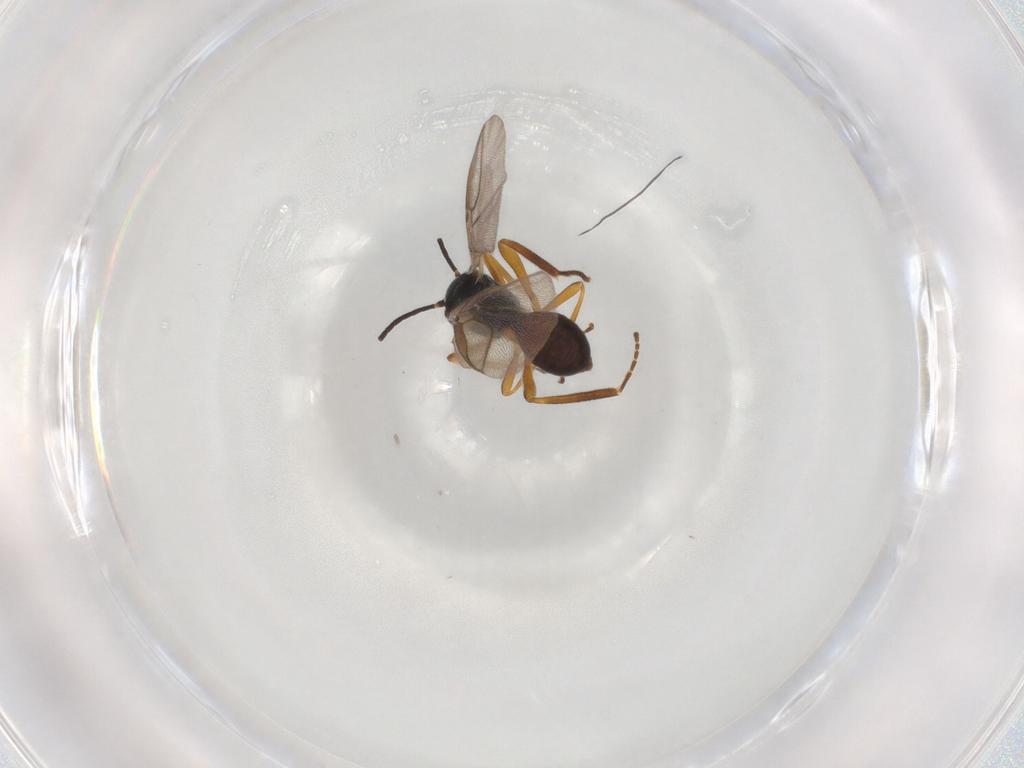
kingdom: Animalia
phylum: Arthropoda
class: Insecta
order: Hymenoptera
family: Braconidae
